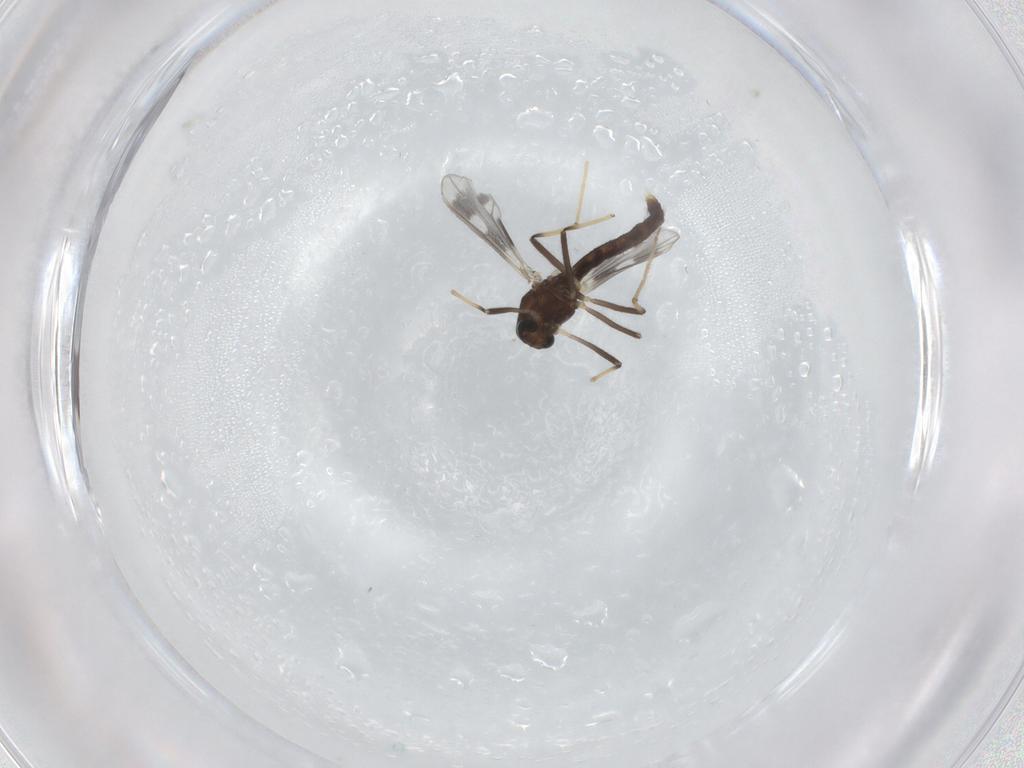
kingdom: Animalia
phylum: Arthropoda
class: Insecta
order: Diptera
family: Chironomidae
